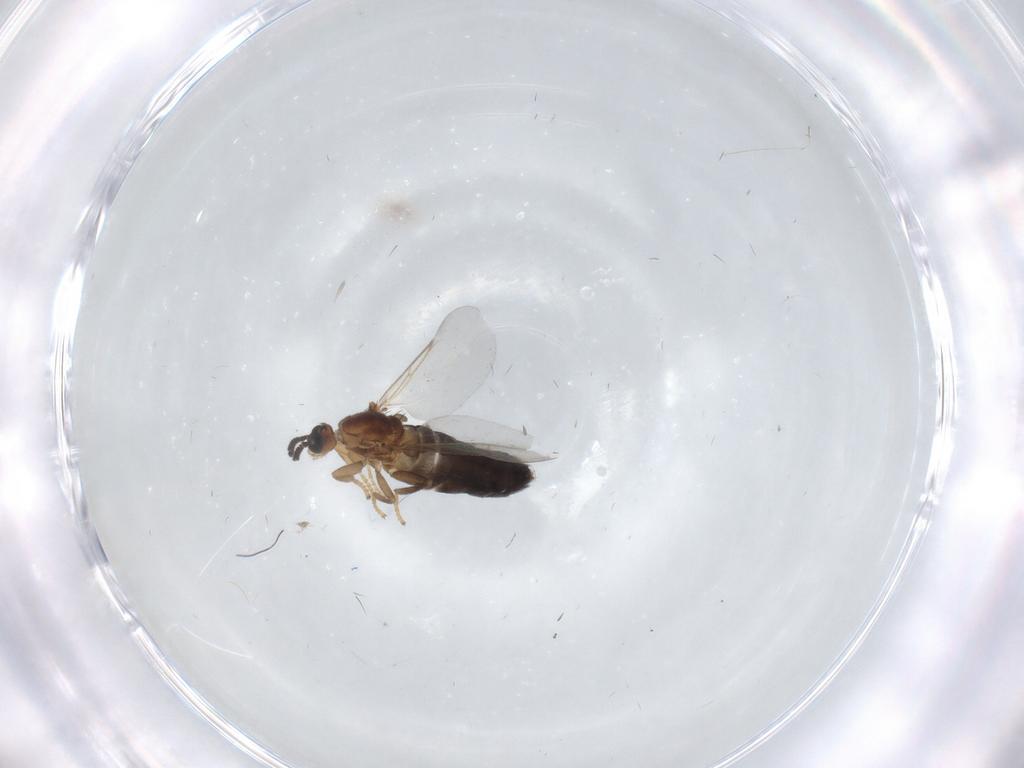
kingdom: Animalia
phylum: Arthropoda
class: Insecta
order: Diptera
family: Scatopsidae
